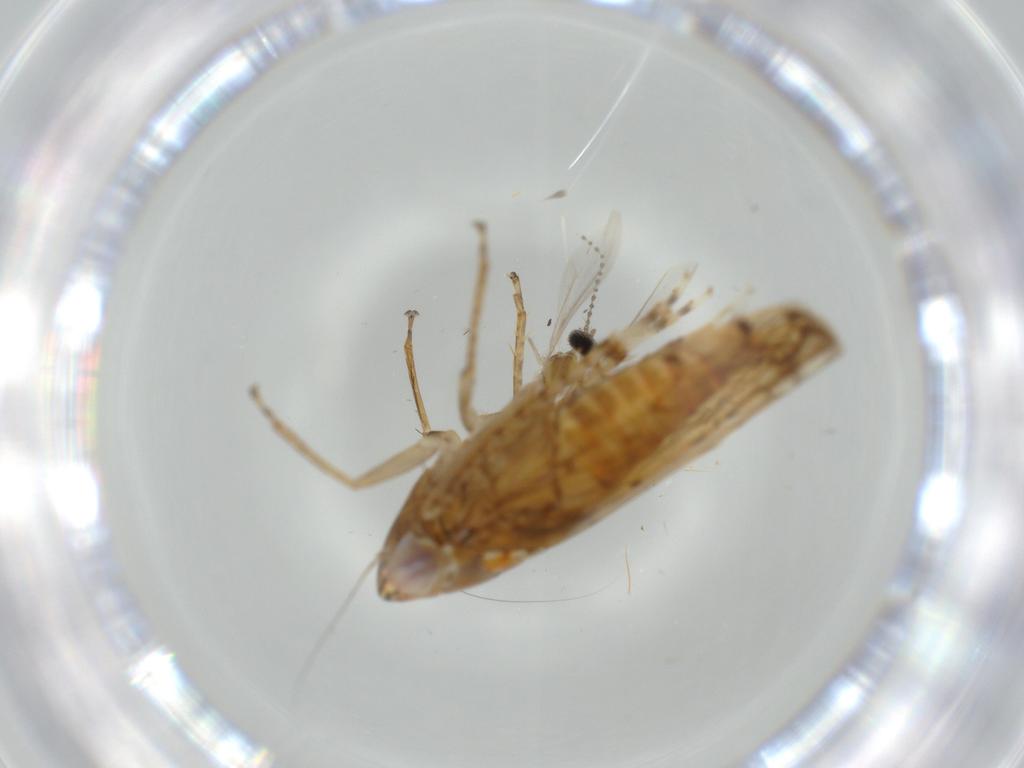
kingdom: Animalia
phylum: Arthropoda
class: Insecta
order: Hemiptera
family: Cicadellidae
